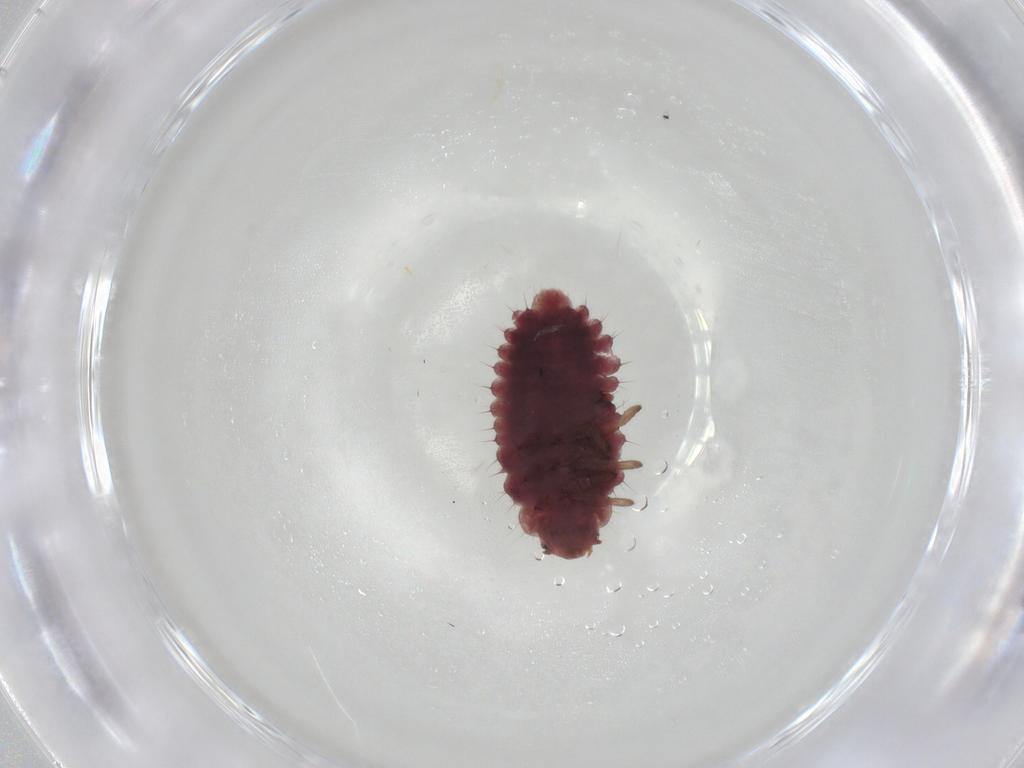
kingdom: Animalia
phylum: Arthropoda
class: Insecta
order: Coleoptera
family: Coccinellidae
